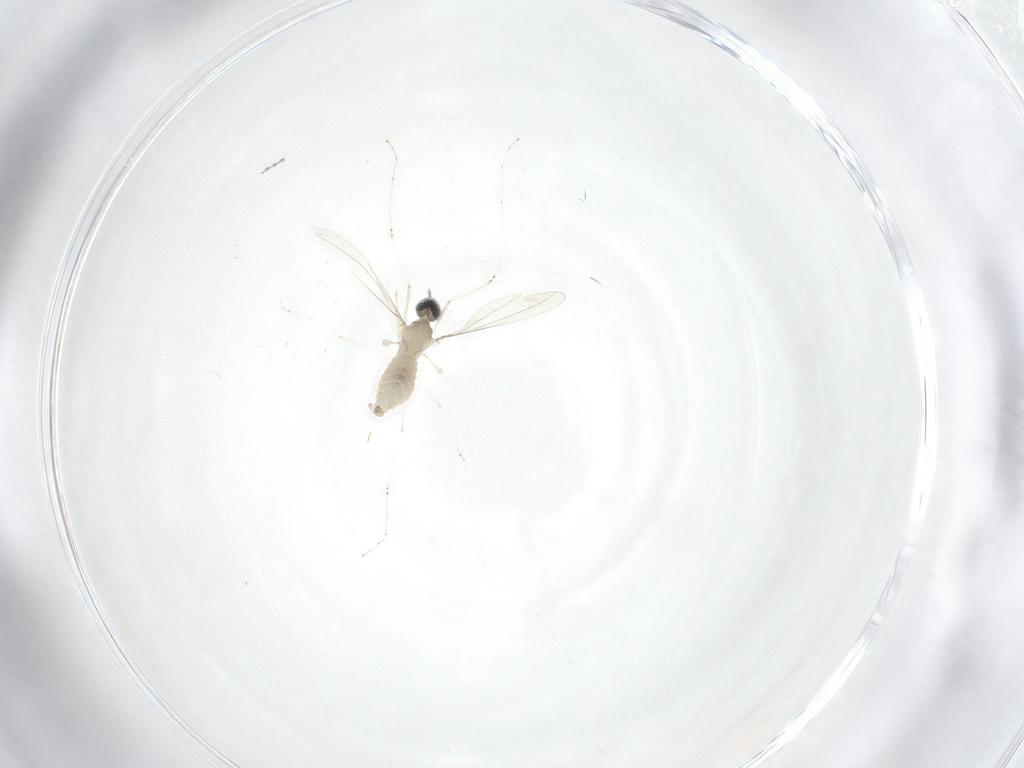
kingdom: Animalia
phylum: Arthropoda
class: Insecta
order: Diptera
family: Cecidomyiidae
